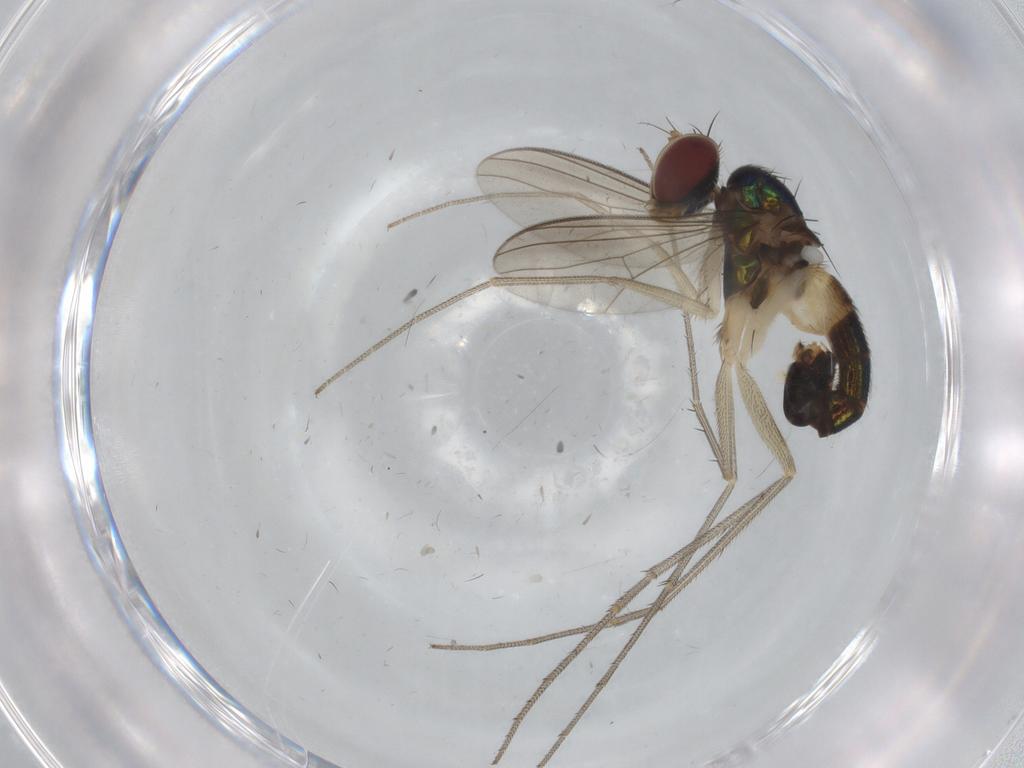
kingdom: Animalia
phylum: Arthropoda
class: Insecta
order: Diptera
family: Dolichopodidae
